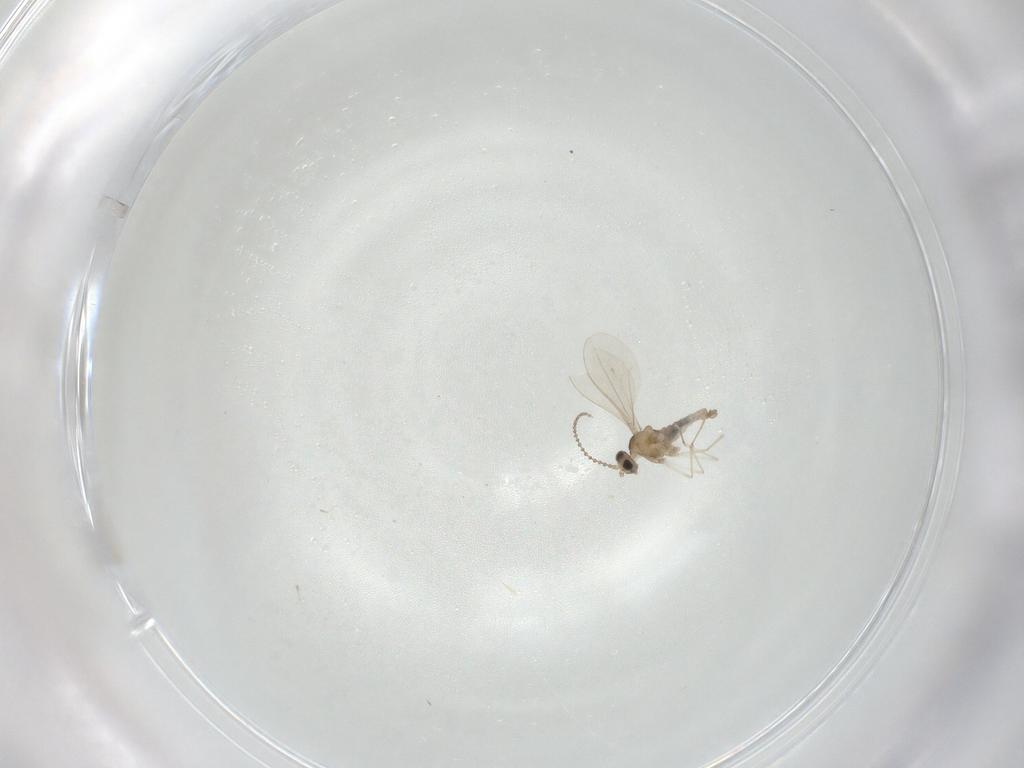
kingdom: Animalia
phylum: Arthropoda
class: Insecta
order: Diptera
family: Cecidomyiidae
